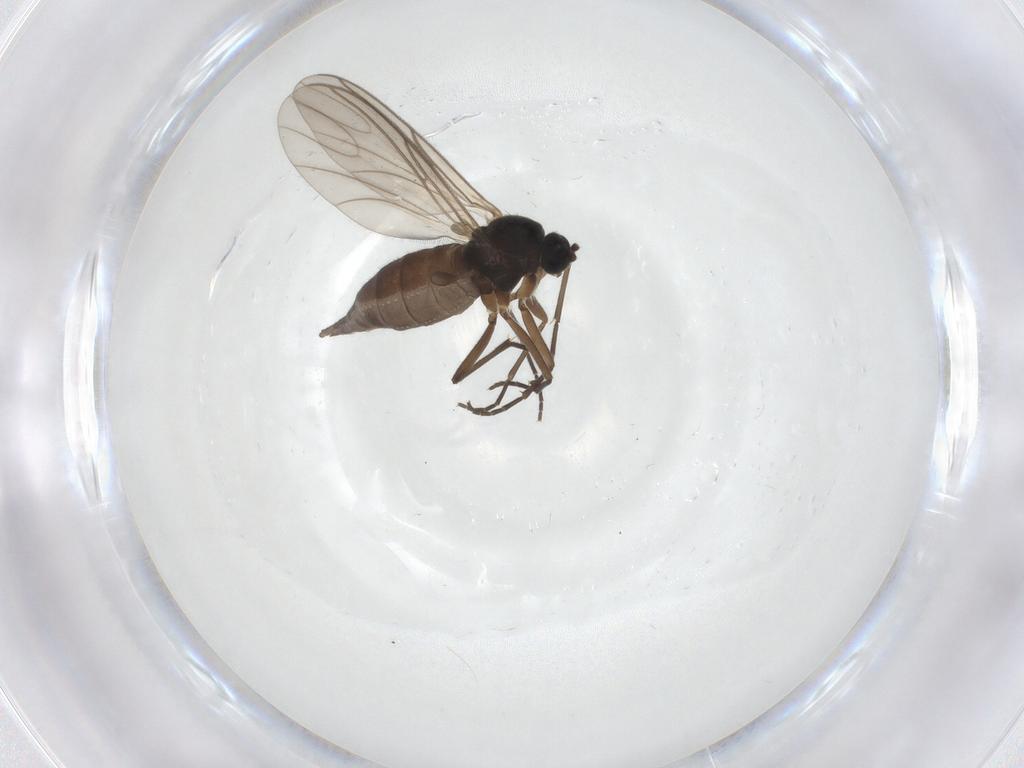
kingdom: Animalia
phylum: Arthropoda
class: Insecta
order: Diptera
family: Sciaridae
